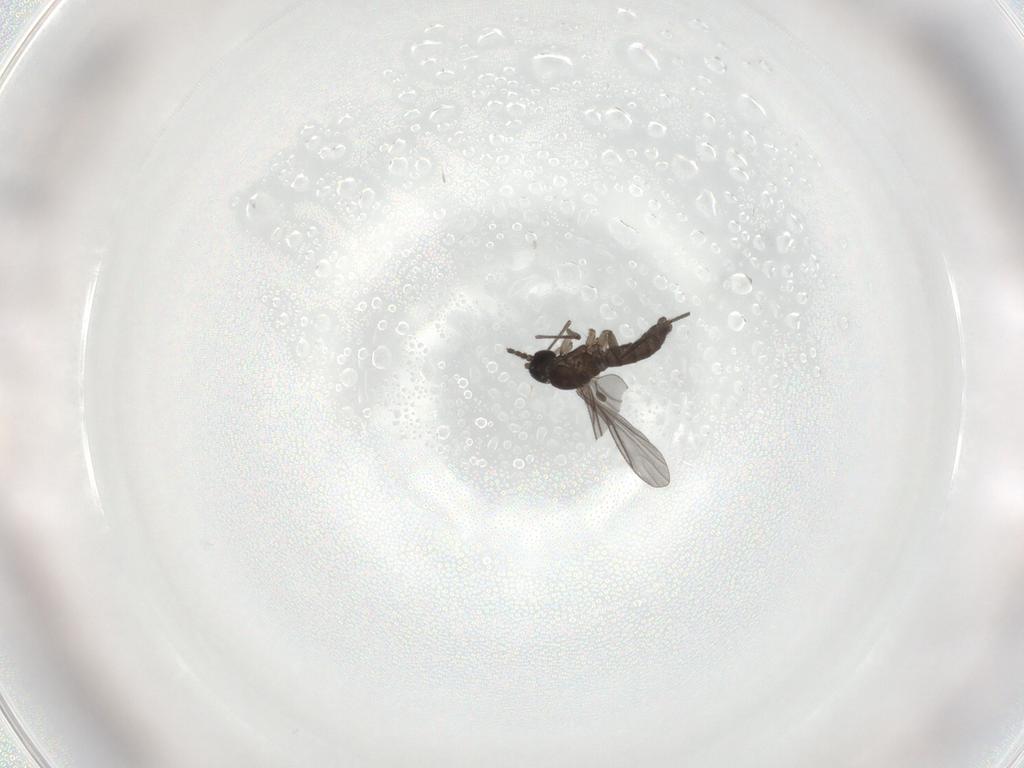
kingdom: Animalia
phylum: Arthropoda
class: Insecta
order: Diptera
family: Sciaridae
